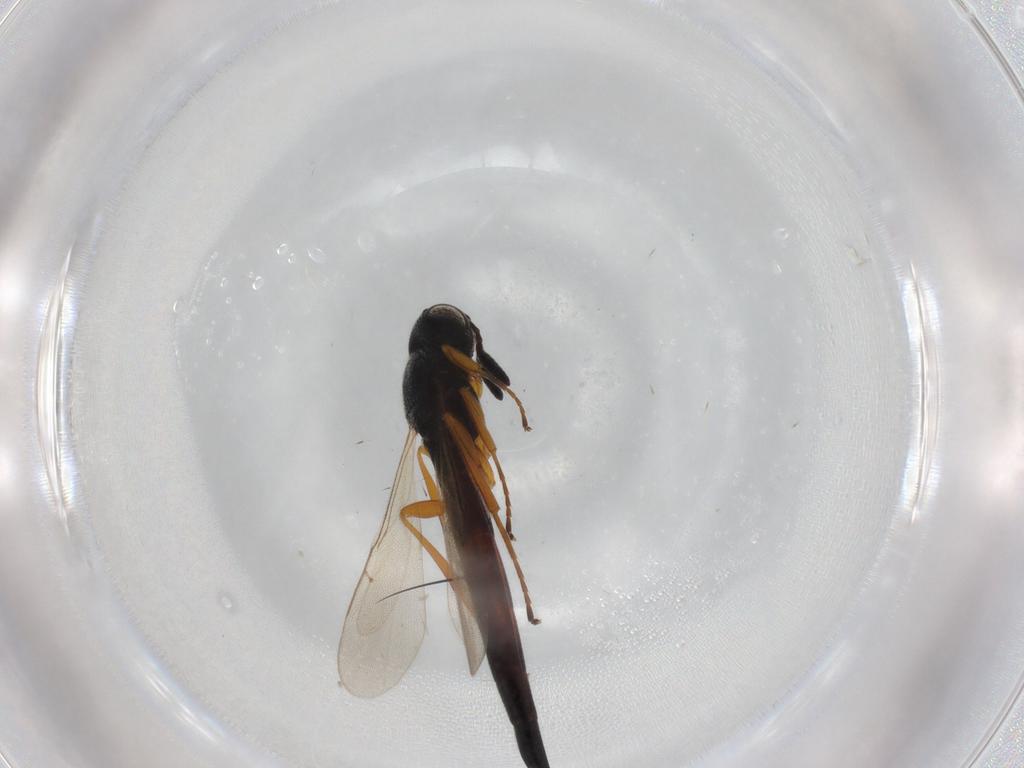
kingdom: Animalia
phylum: Arthropoda
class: Insecta
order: Hymenoptera
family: Scelionidae
